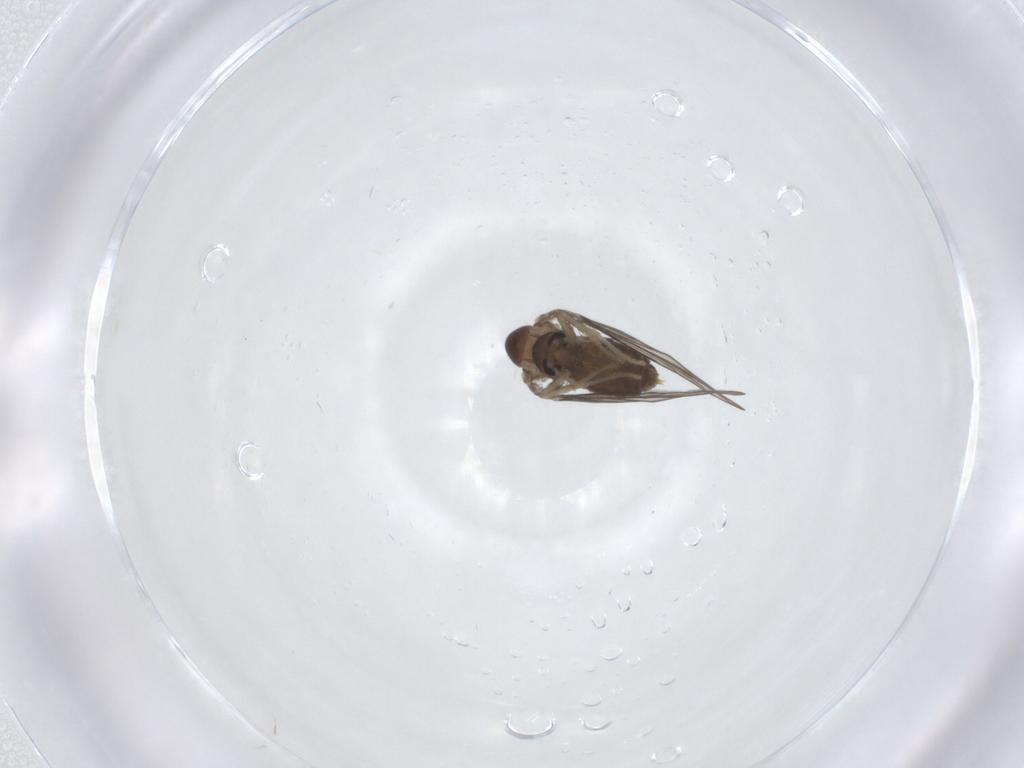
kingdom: Animalia
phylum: Arthropoda
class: Insecta
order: Diptera
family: Psychodidae
